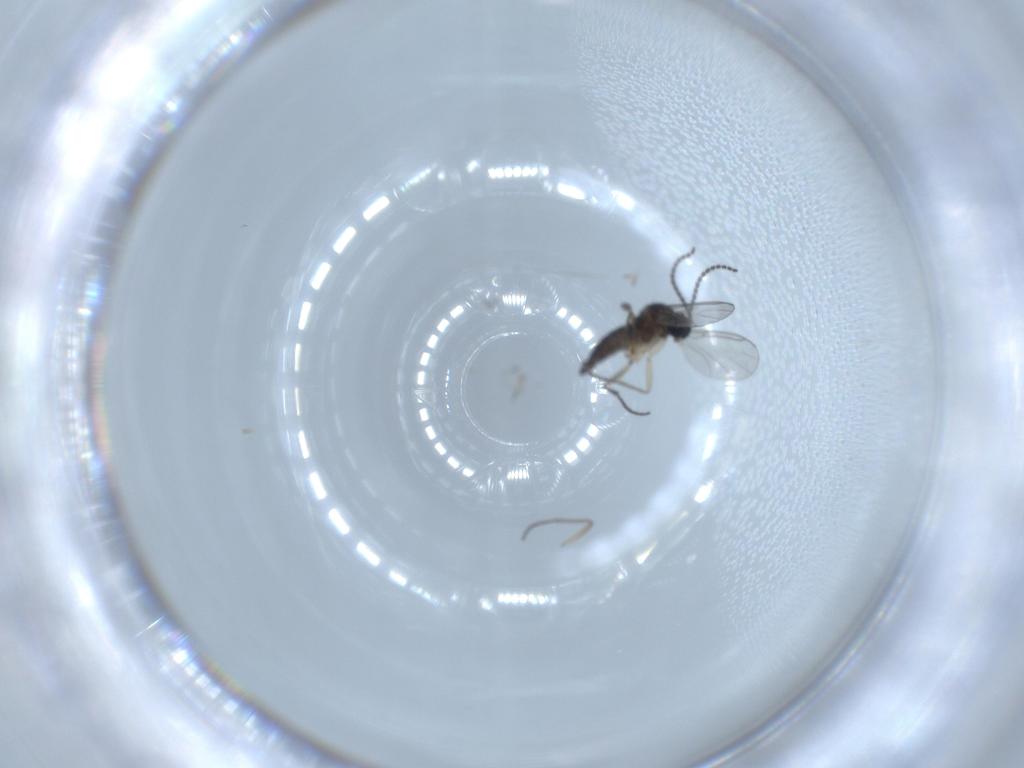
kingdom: Animalia
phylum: Arthropoda
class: Insecta
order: Diptera
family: Sciaridae
